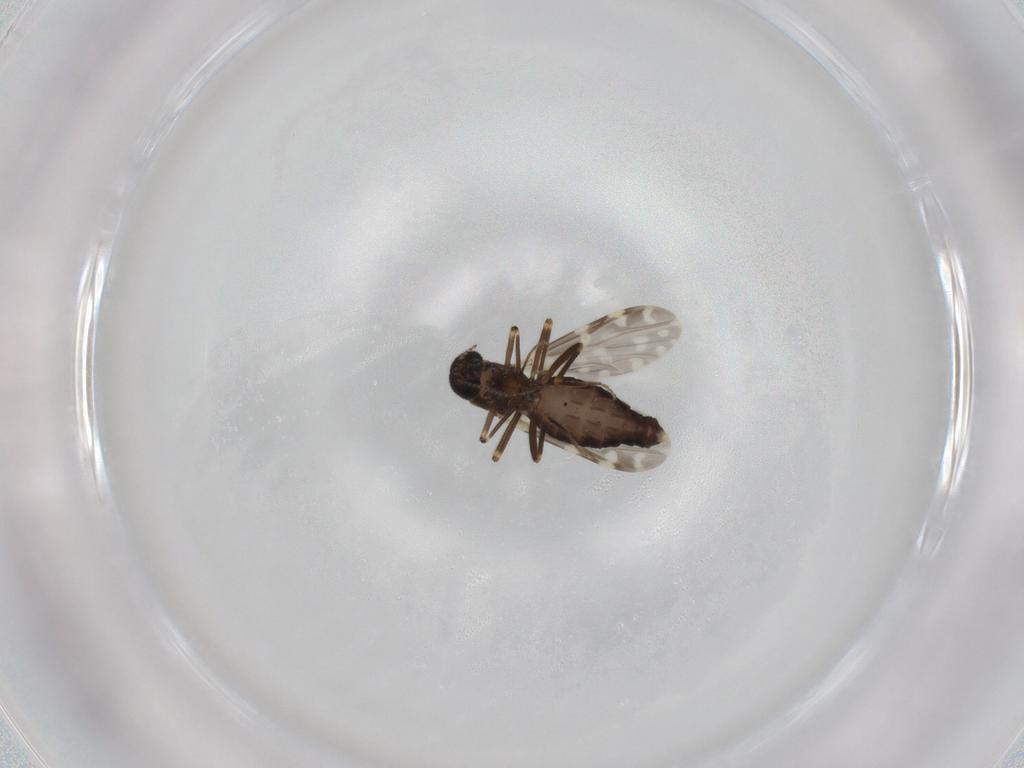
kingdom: Animalia
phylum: Arthropoda
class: Insecta
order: Diptera
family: Ceratopogonidae
